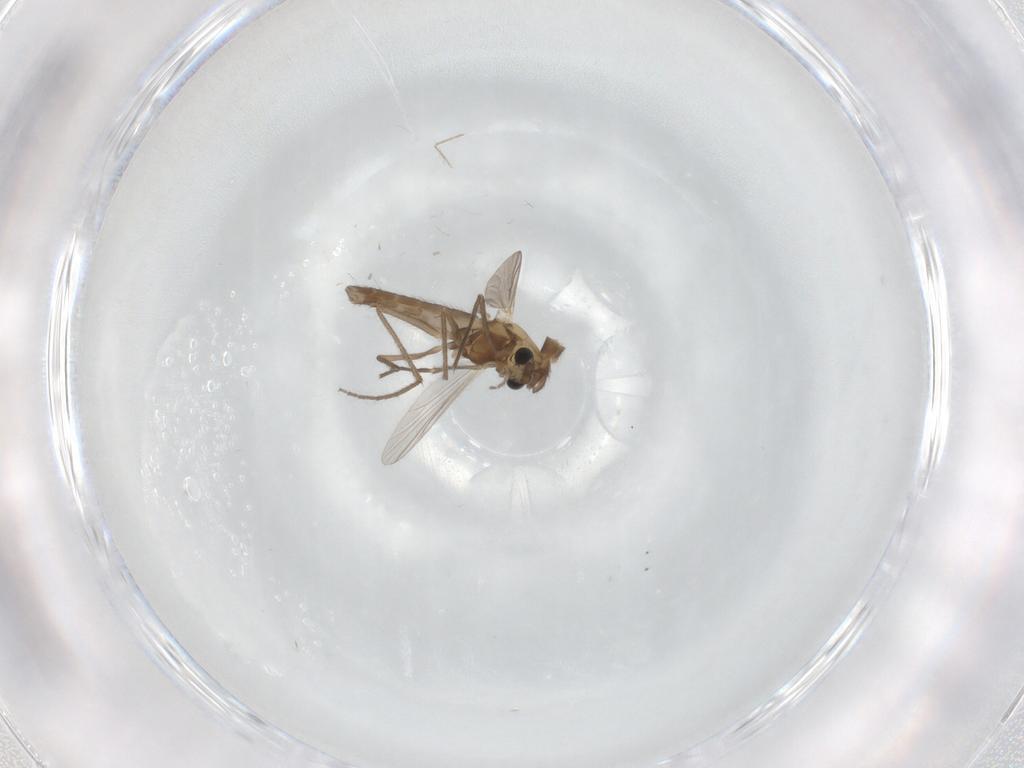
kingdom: Animalia
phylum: Arthropoda
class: Insecta
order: Diptera
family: Chironomidae
